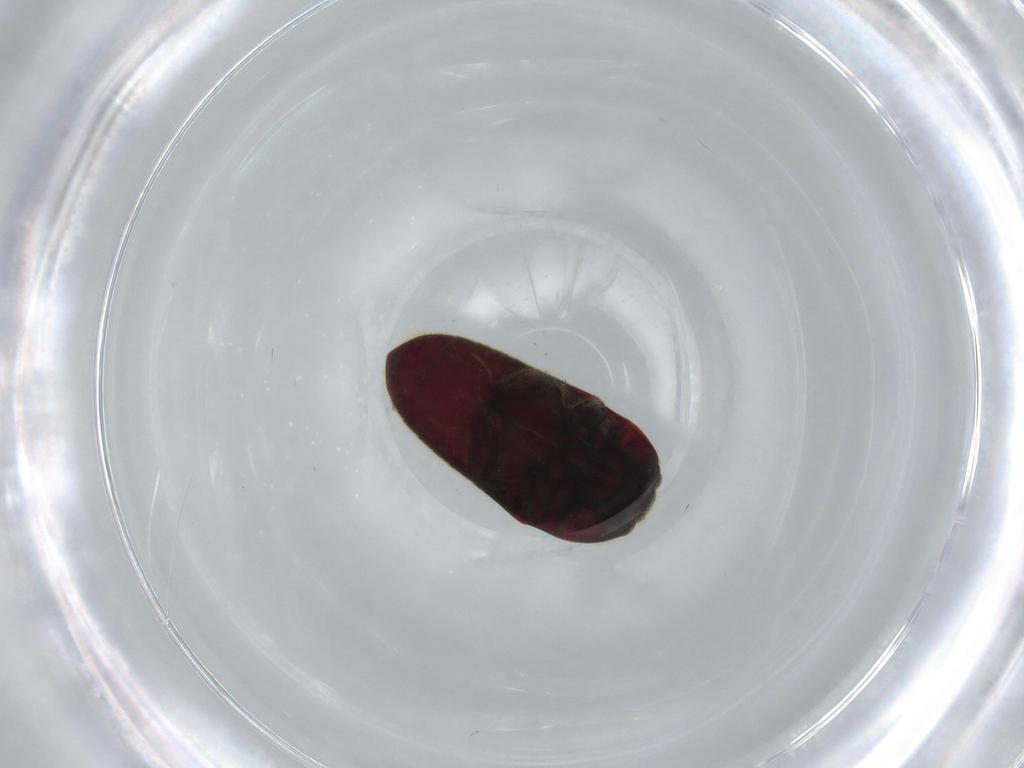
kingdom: Animalia
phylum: Arthropoda
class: Insecta
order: Coleoptera
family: Throscidae
